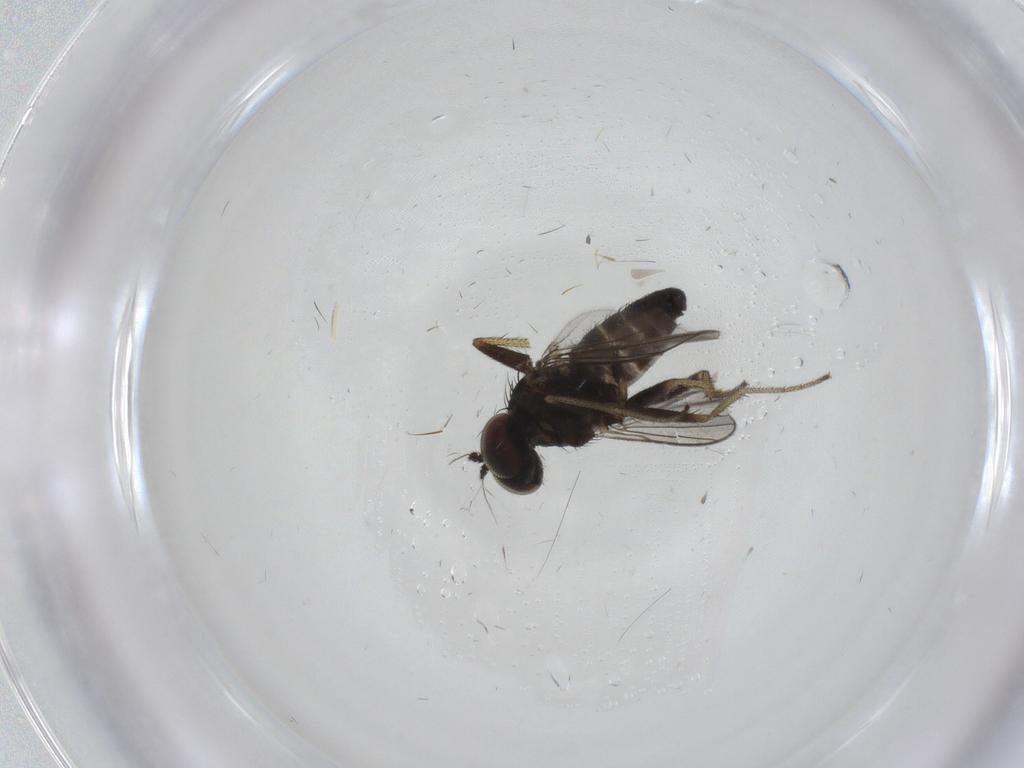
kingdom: Animalia
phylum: Arthropoda
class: Insecta
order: Diptera
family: Dolichopodidae
